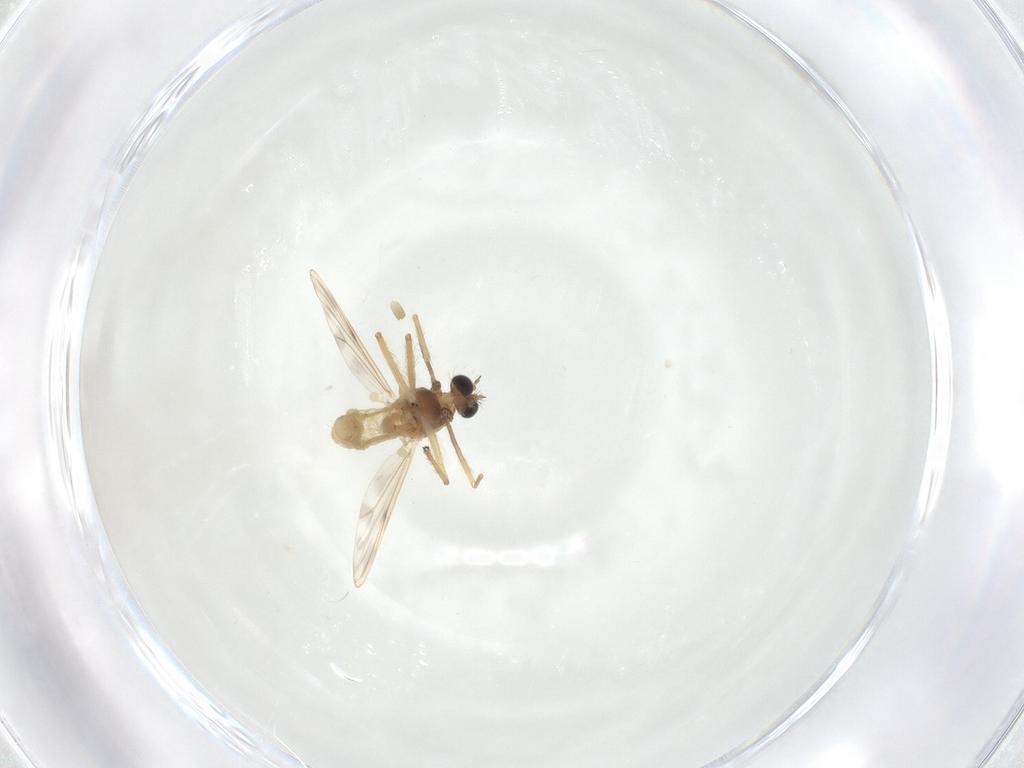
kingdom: Animalia
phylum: Arthropoda
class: Insecta
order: Diptera
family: Chironomidae
